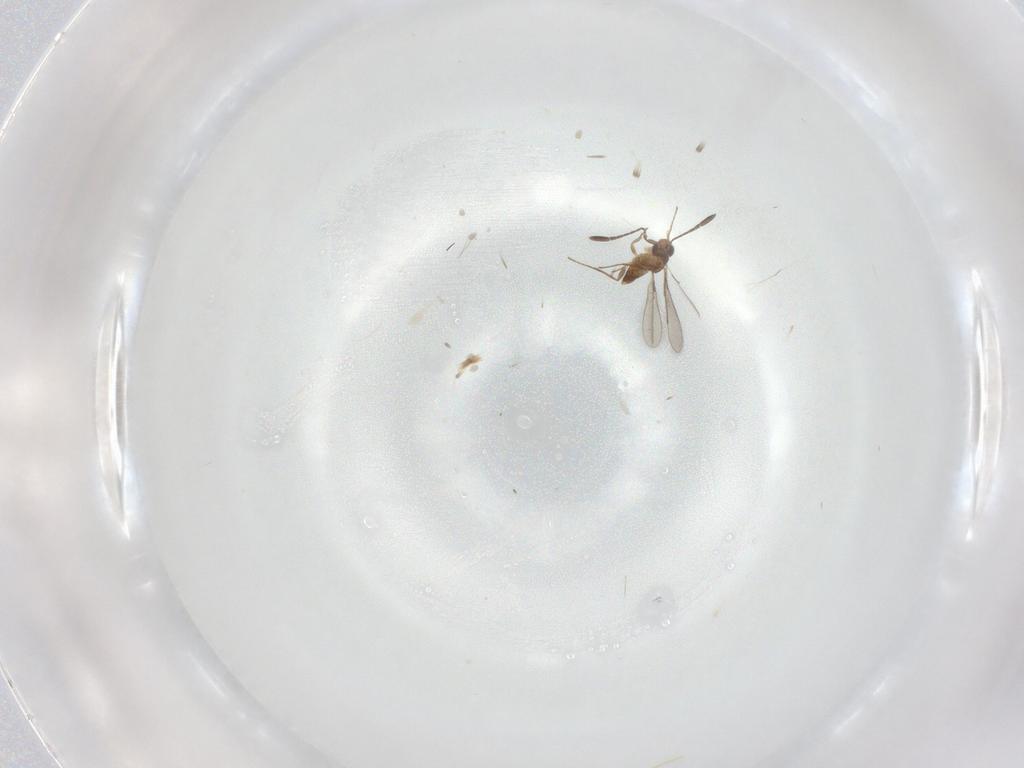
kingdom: Animalia
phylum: Arthropoda
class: Insecta
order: Hymenoptera
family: Mymaridae
